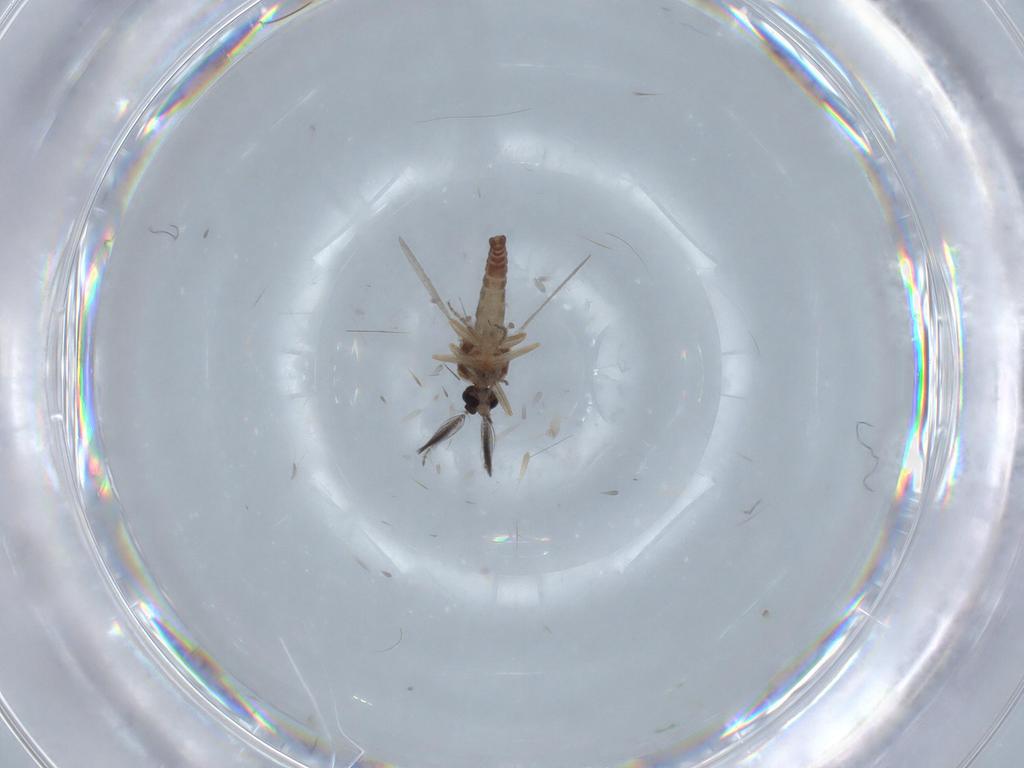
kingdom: Animalia
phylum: Arthropoda
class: Insecta
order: Diptera
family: Ceratopogonidae
